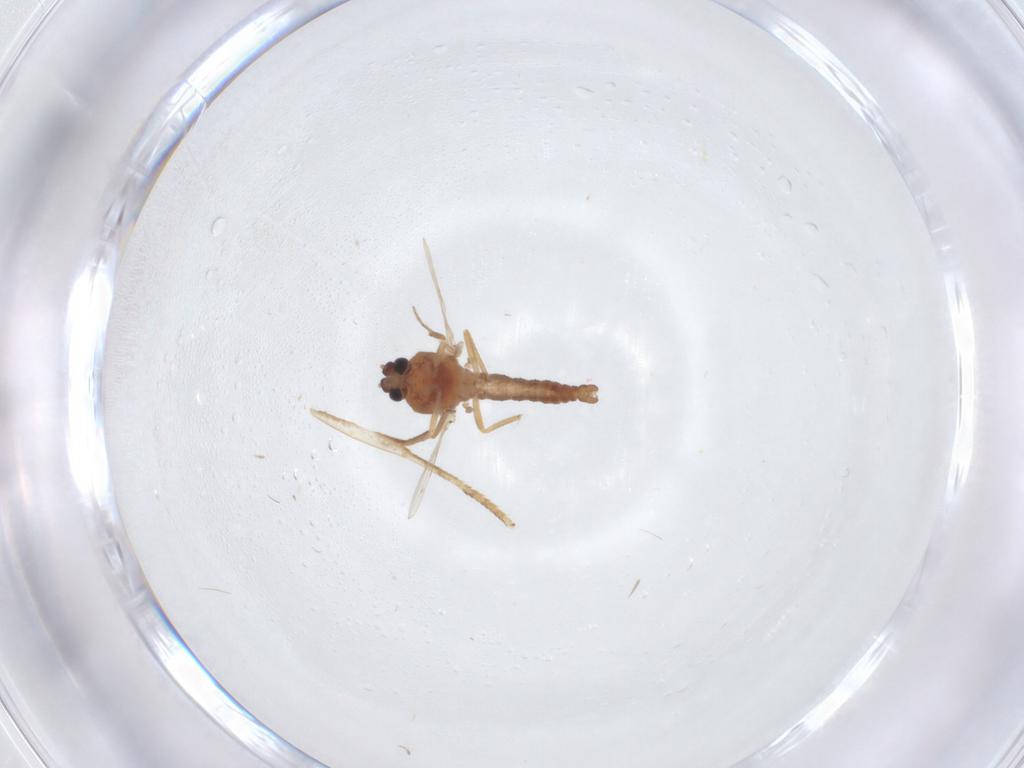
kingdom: Animalia
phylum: Arthropoda
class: Insecta
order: Diptera
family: Ceratopogonidae
